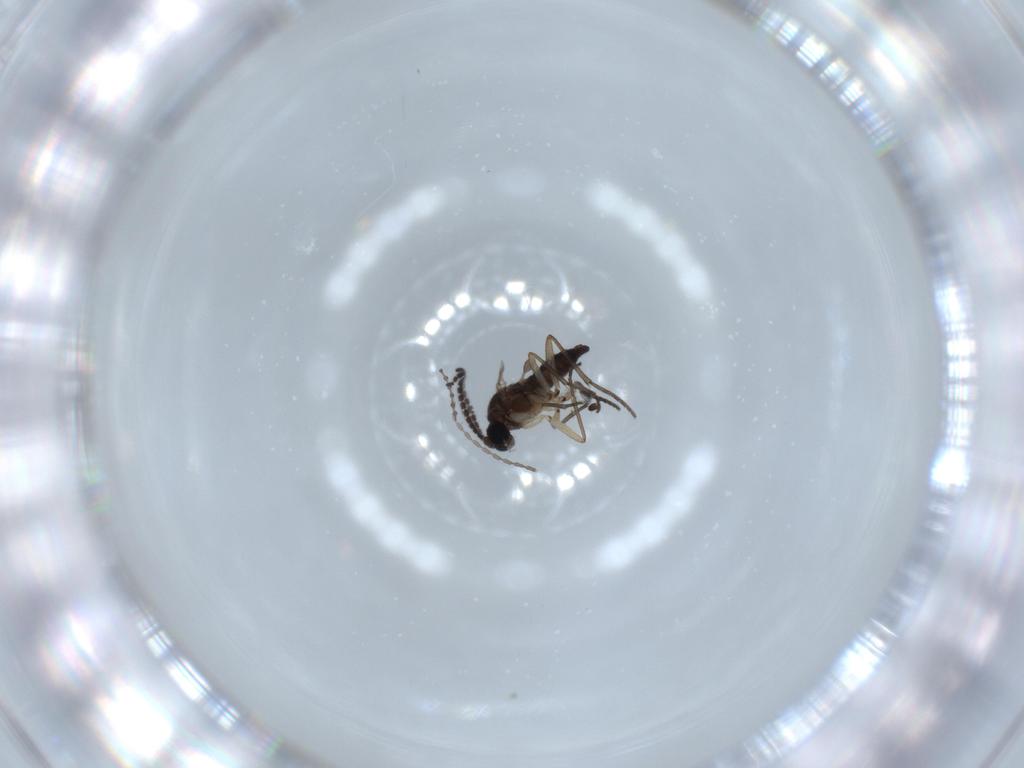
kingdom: Animalia
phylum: Arthropoda
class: Insecta
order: Diptera
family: Sciaridae
